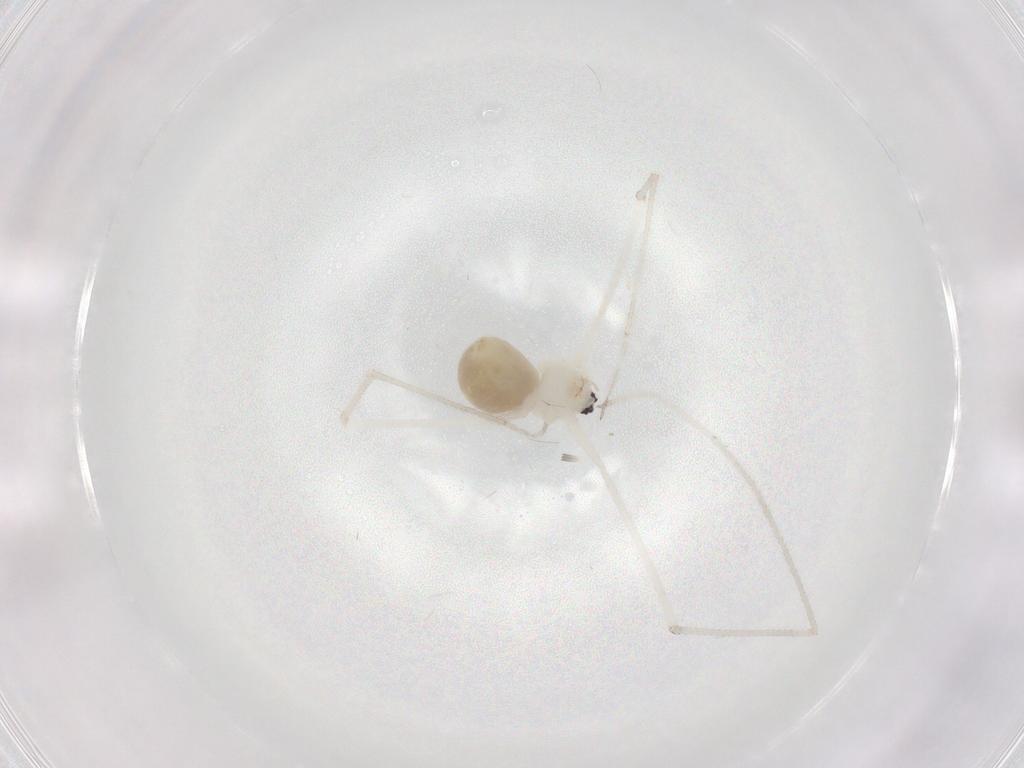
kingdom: Animalia
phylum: Arthropoda
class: Arachnida
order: Araneae
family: Pholcidae
